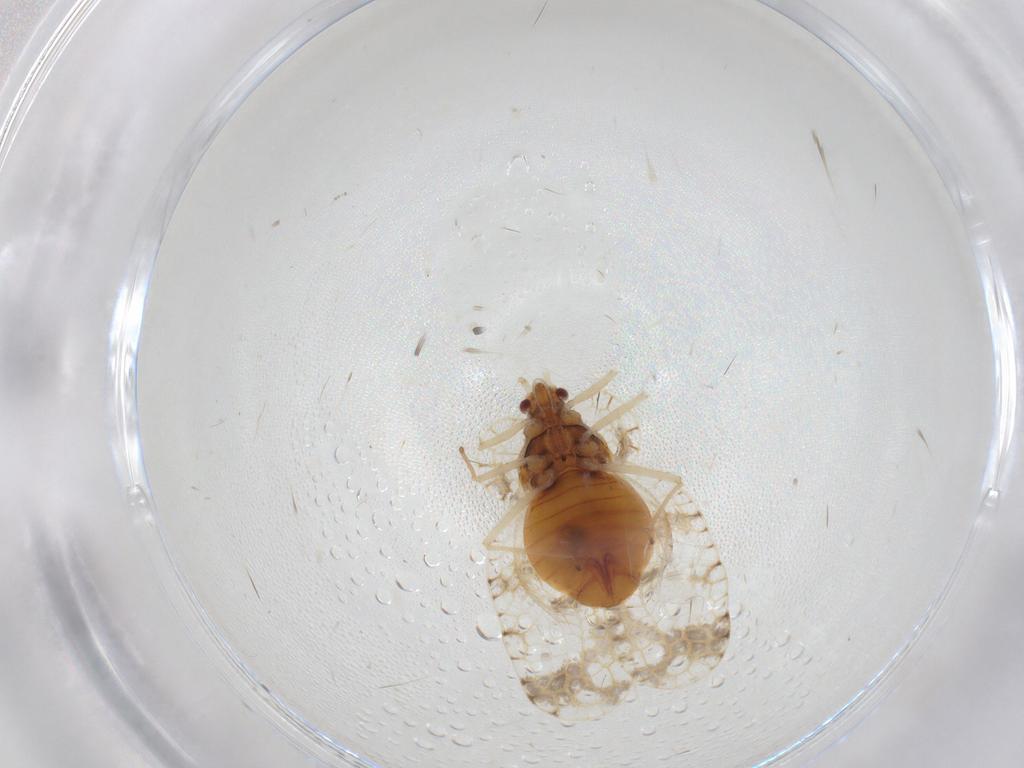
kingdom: Animalia
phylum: Arthropoda
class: Insecta
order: Hemiptera
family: Tingidae
